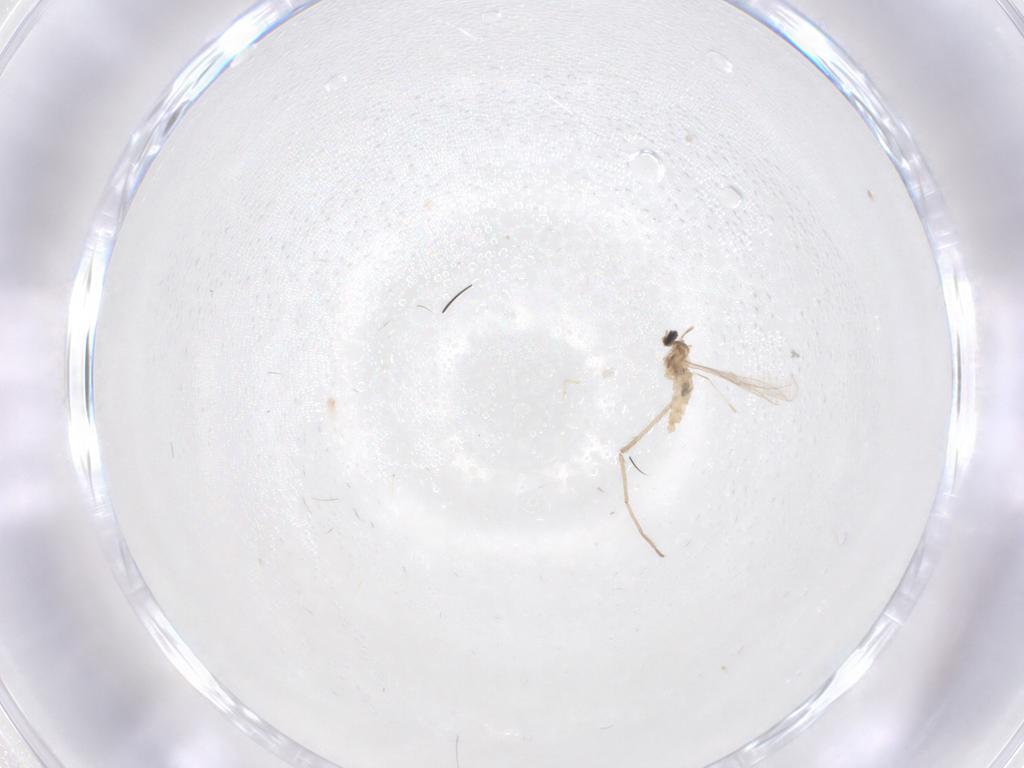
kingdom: Animalia
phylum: Arthropoda
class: Insecta
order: Diptera
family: Cecidomyiidae
